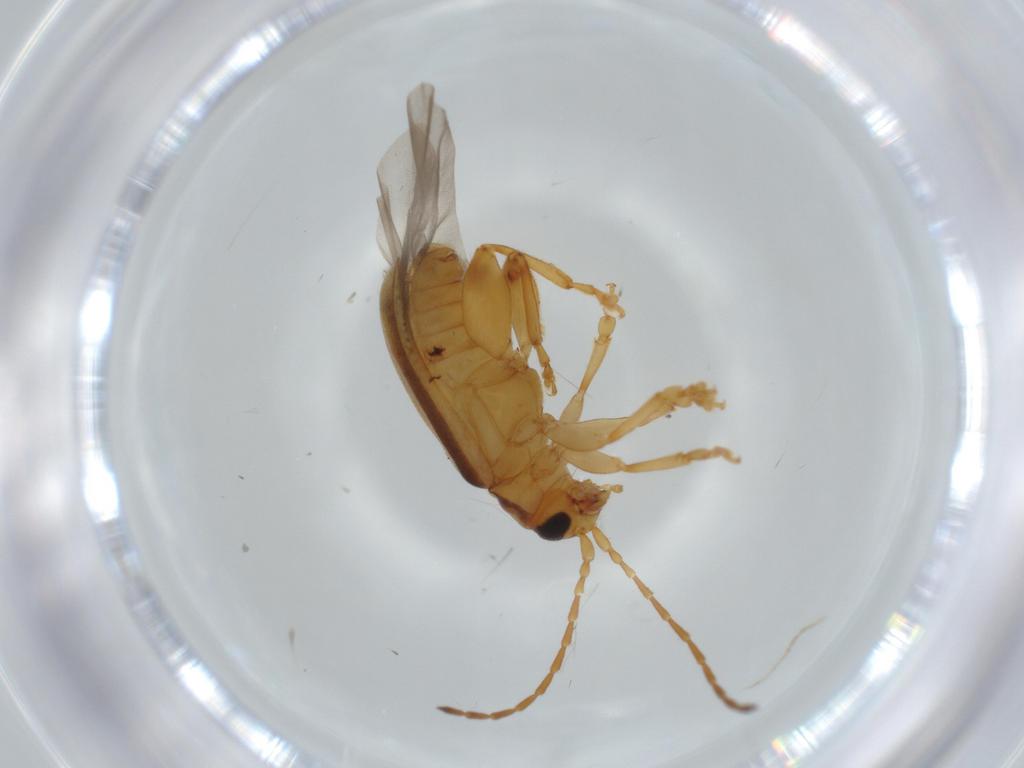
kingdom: Animalia
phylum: Arthropoda
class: Insecta
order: Coleoptera
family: Chrysomelidae
